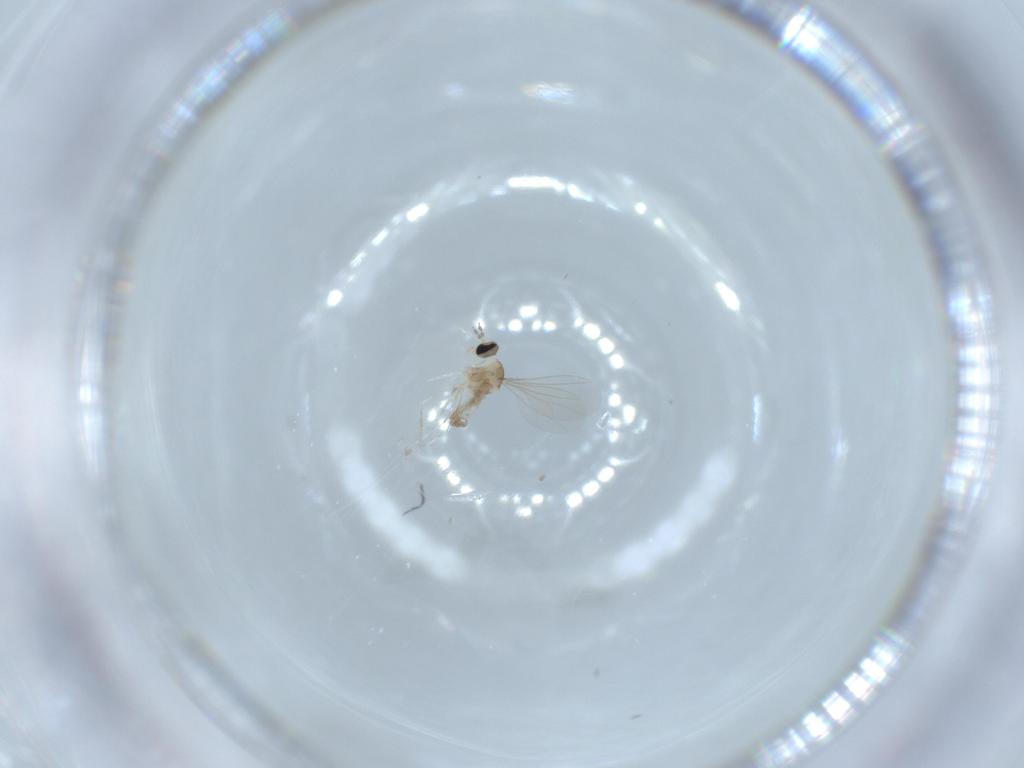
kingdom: Animalia
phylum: Arthropoda
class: Insecta
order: Diptera
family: Cecidomyiidae
